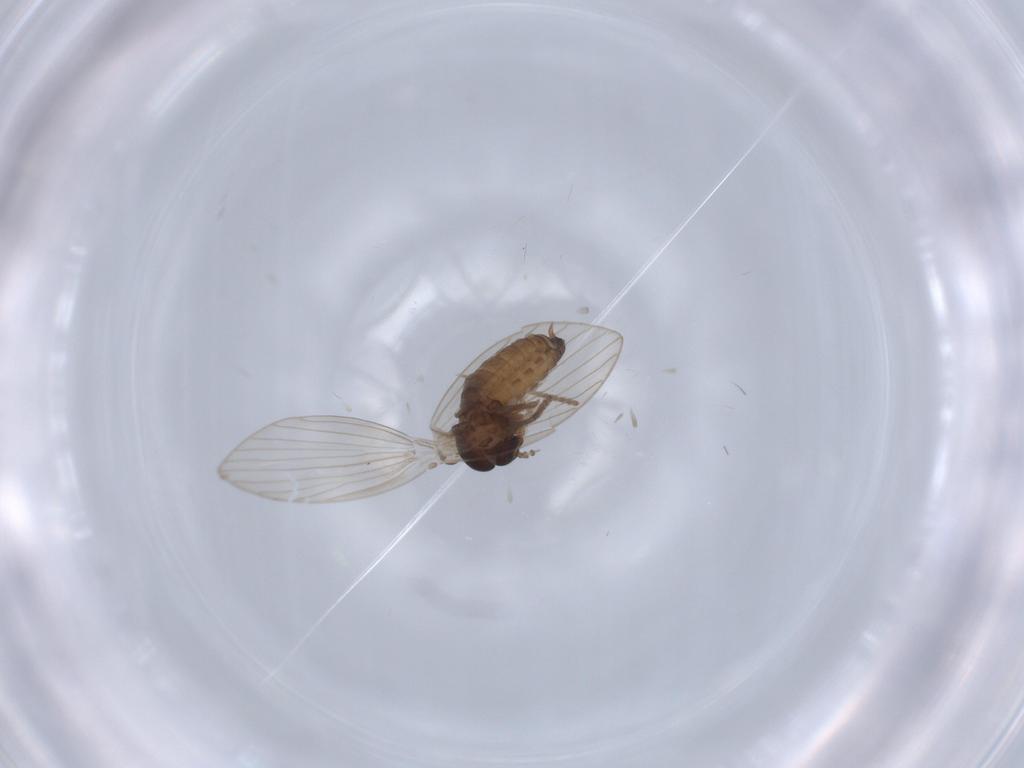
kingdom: Animalia
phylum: Arthropoda
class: Insecta
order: Diptera
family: Psychodidae
